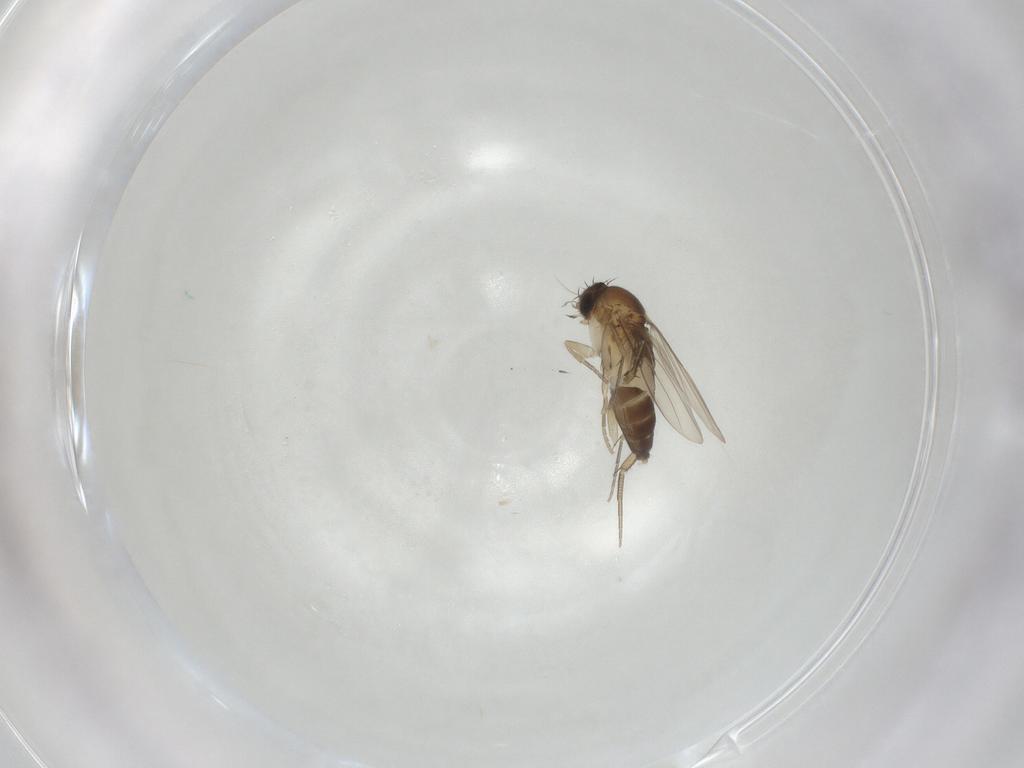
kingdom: Animalia
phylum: Arthropoda
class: Insecta
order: Diptera
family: Phoridae
